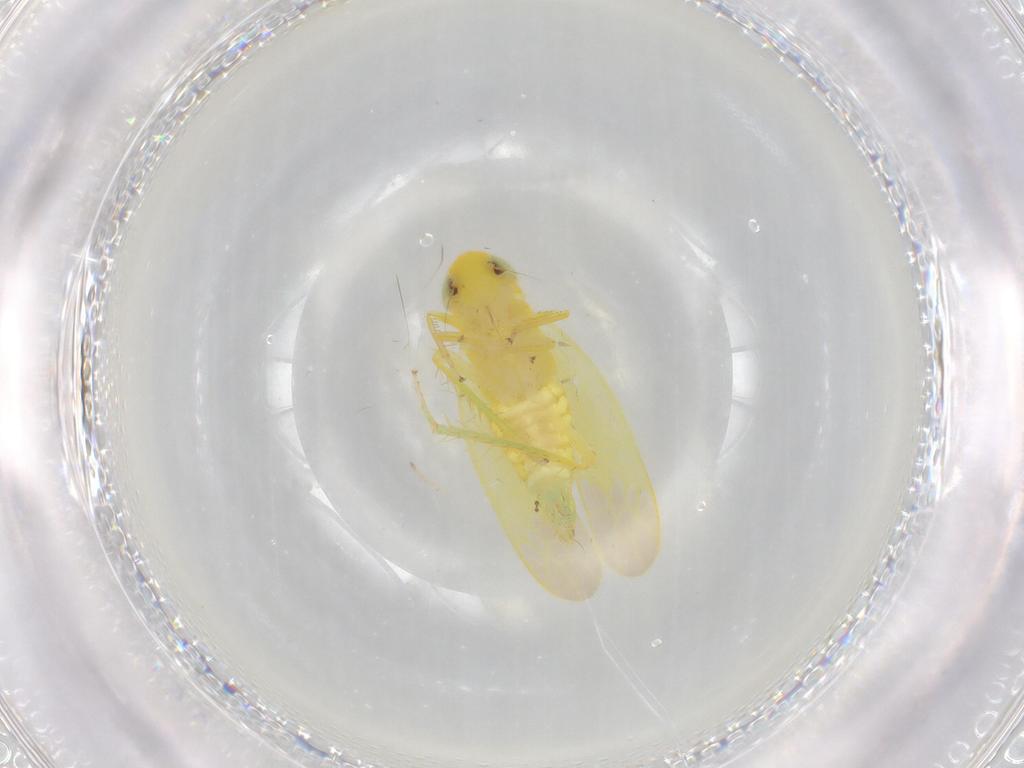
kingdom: Animalia
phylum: Arthropoda
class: Insecta
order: Hemiptera
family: Cicadellidae
